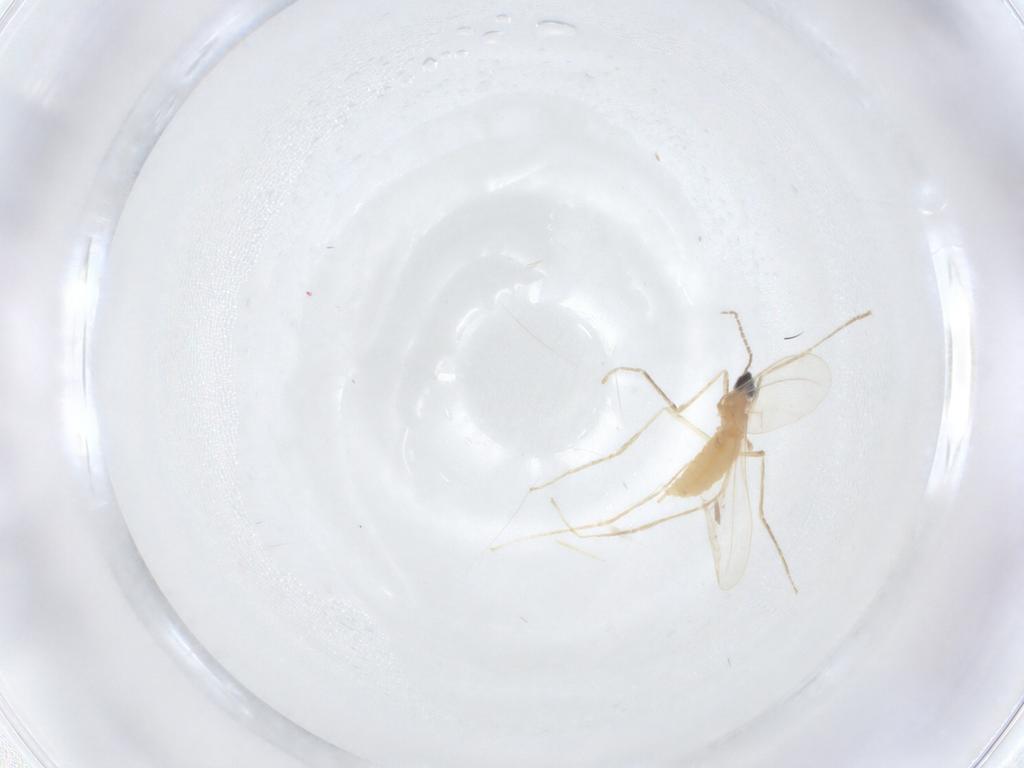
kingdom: Animalia
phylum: Arthropoda
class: Insecta
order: Diptera
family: Cecidomyiidae
